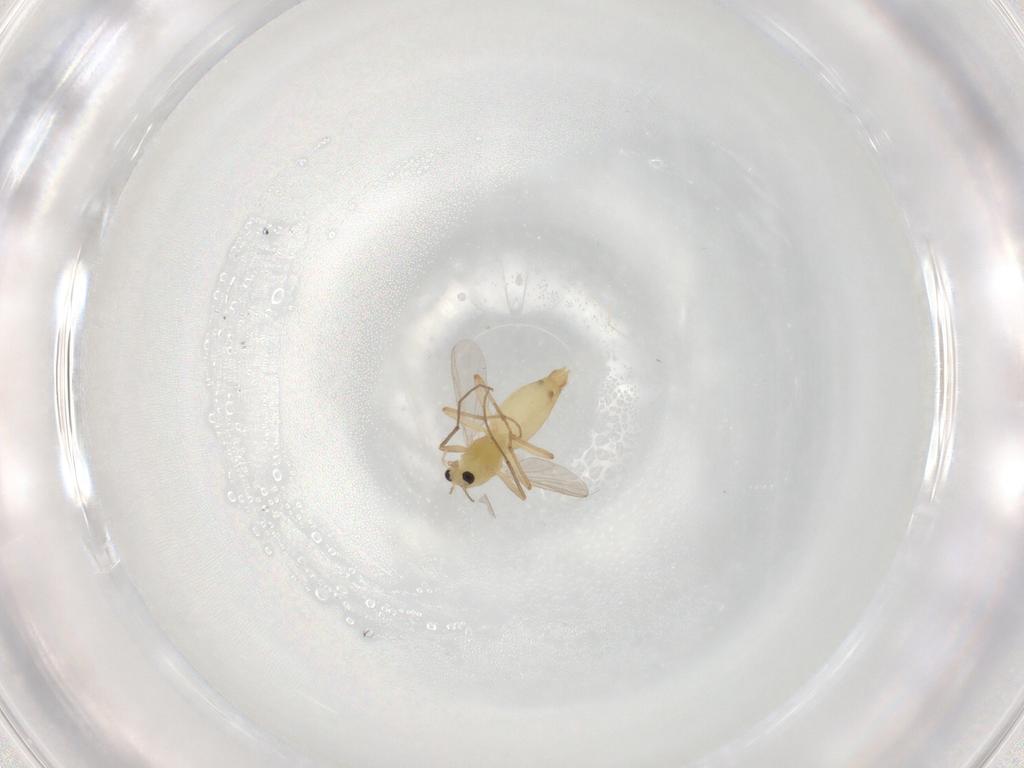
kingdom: Animalia
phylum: Arthropoda
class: Insecta
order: Diptera
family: Chironomidae
